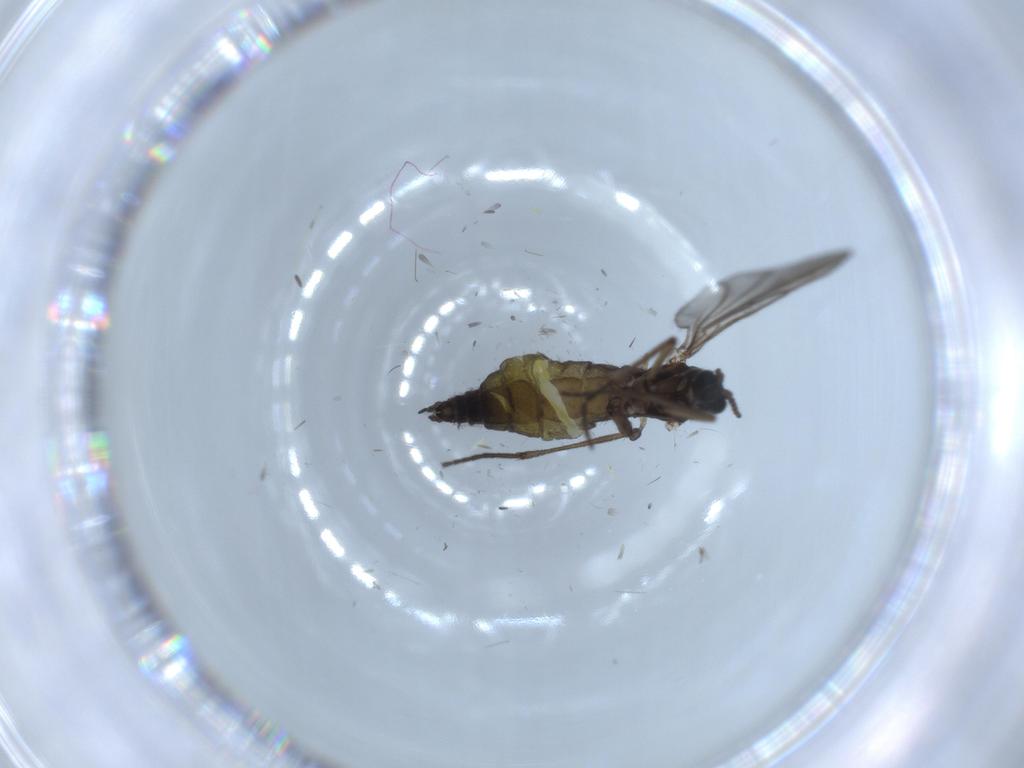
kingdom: Animalia
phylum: Arthropoda
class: Insecta
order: Diptera
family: Sciaridae
